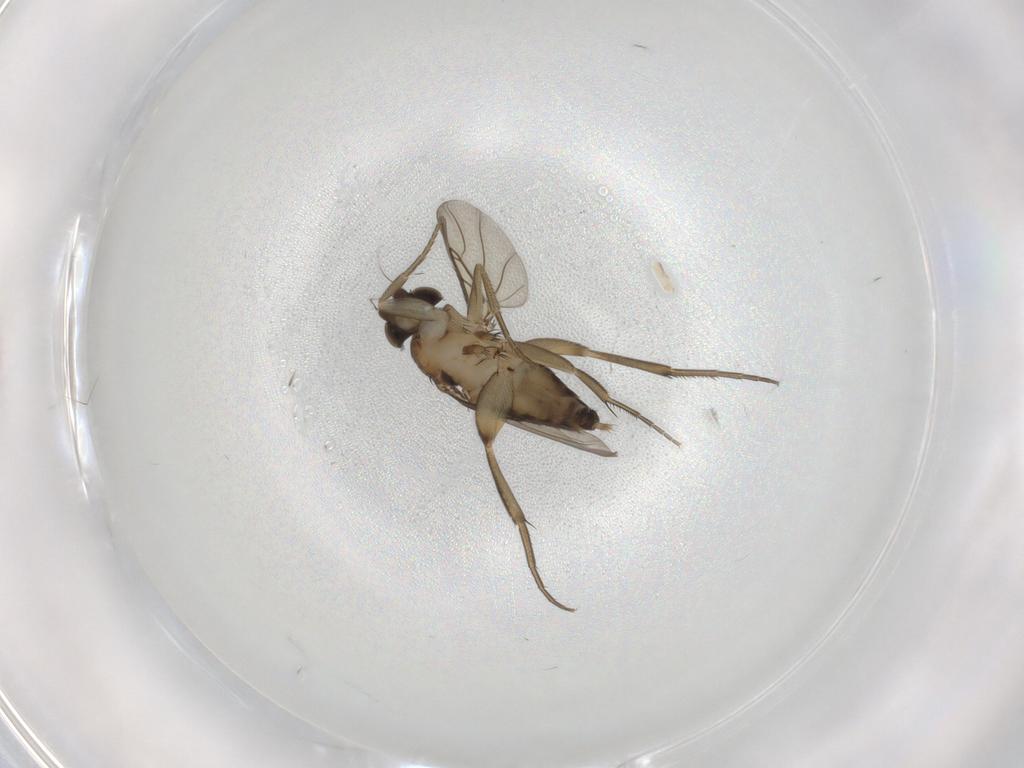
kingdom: Animalia
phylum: Arthropoda
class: Insecta
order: Diptera
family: Phoridae
